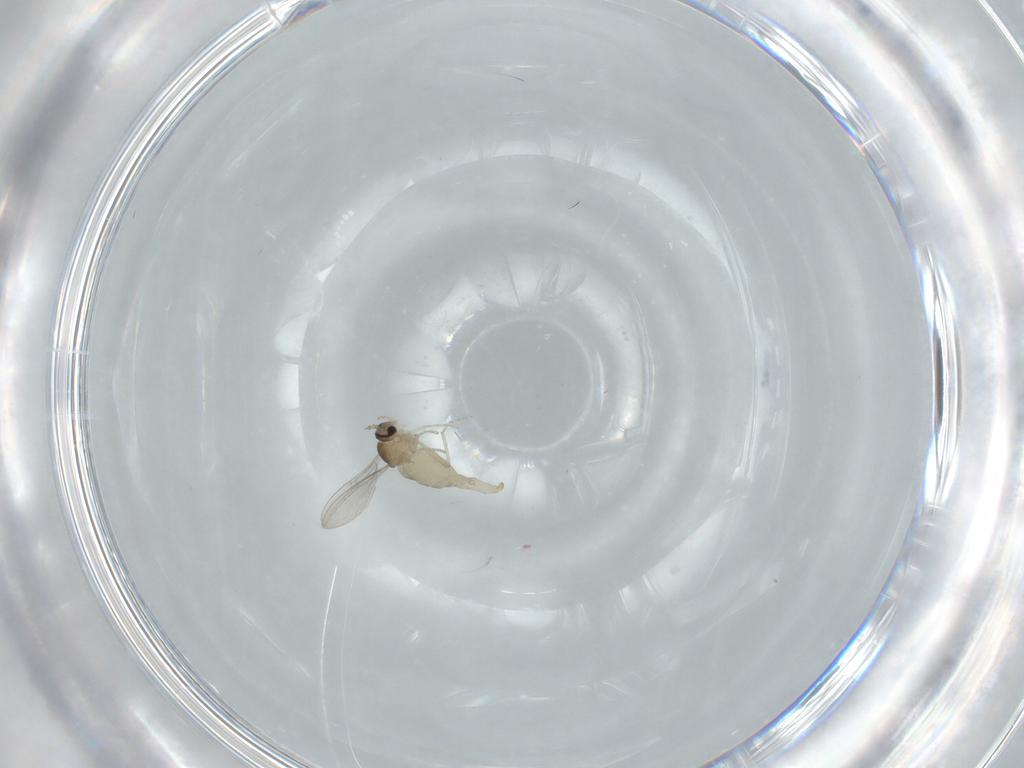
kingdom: Animalia
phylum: Arthropoda
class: Insecta
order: Diptera
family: Cecidomyiidae
